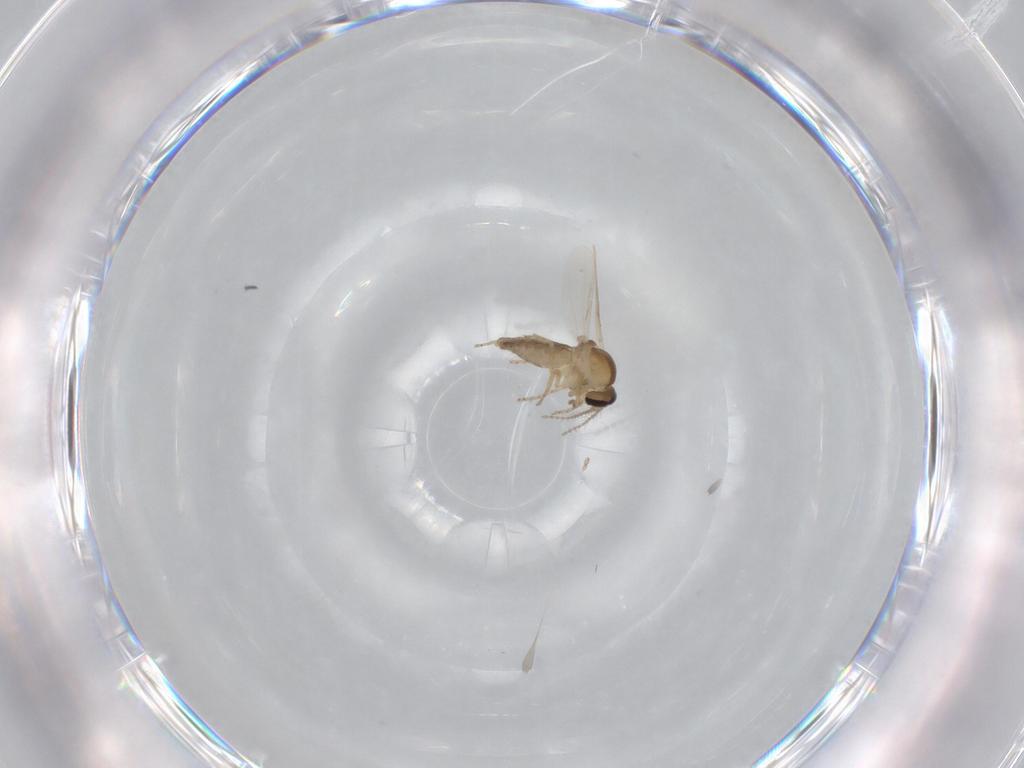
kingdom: Animalia
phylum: Arthropoda
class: Insecta
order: Diptera
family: Ceratopogonidae
